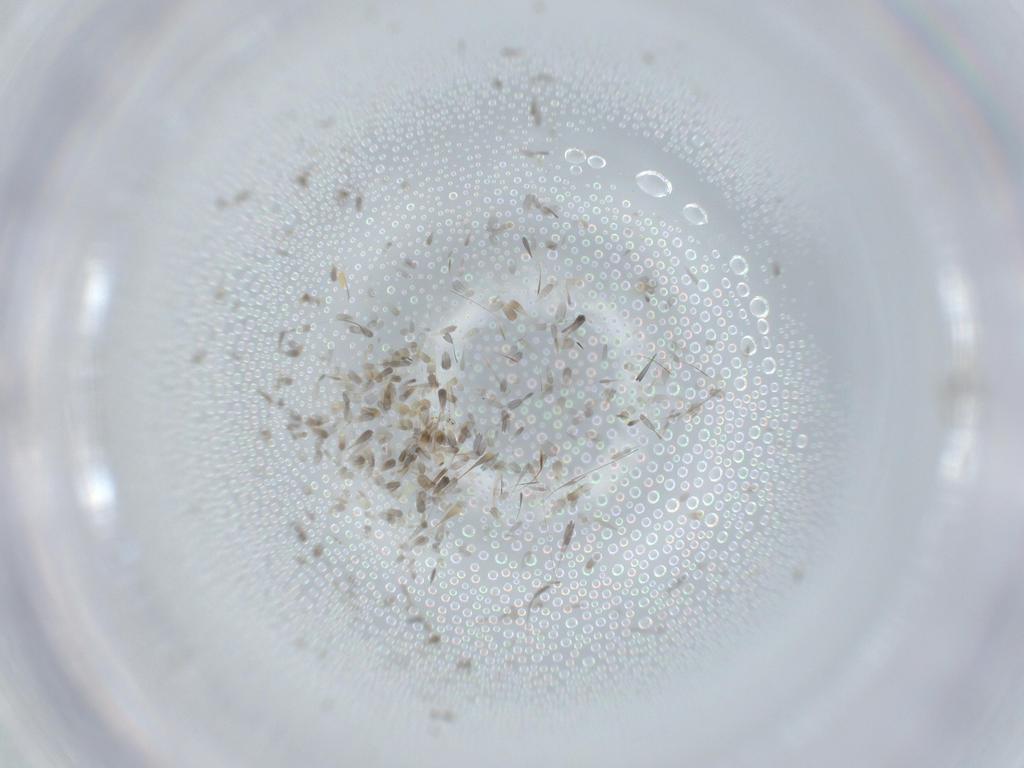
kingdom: Animalia
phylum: Arthropoda
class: Insecta
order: Diptera
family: Cecidomyiidae
